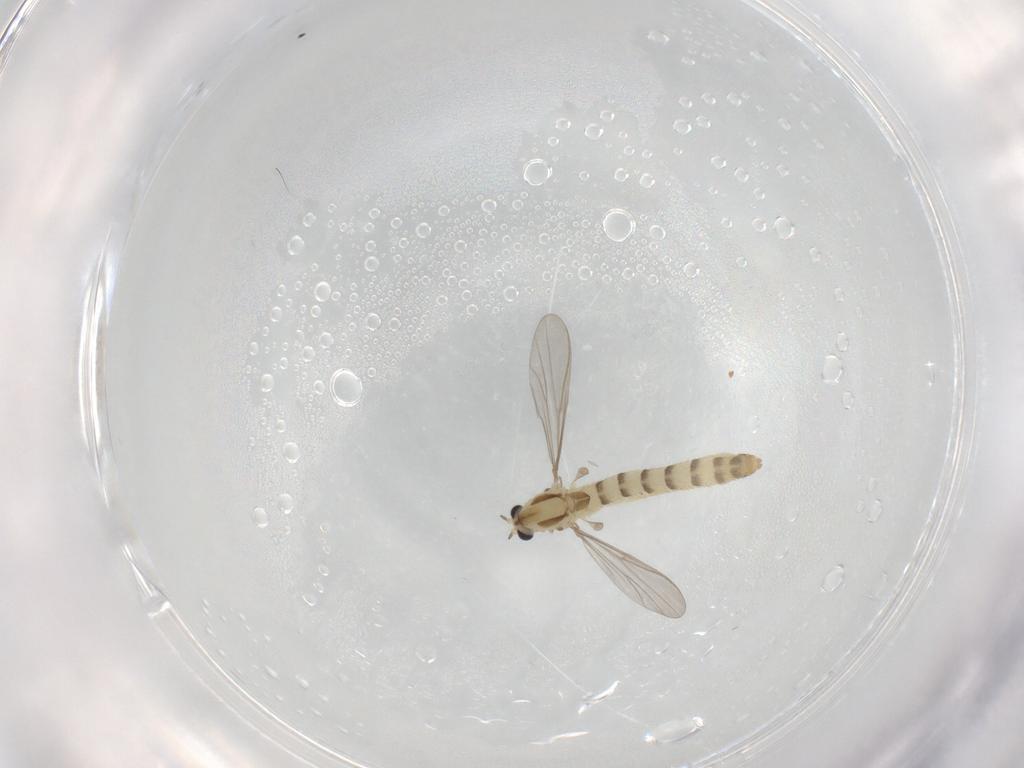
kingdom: Animalia
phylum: Arthropoda
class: Insecta
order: Diptera
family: Chironomidae
